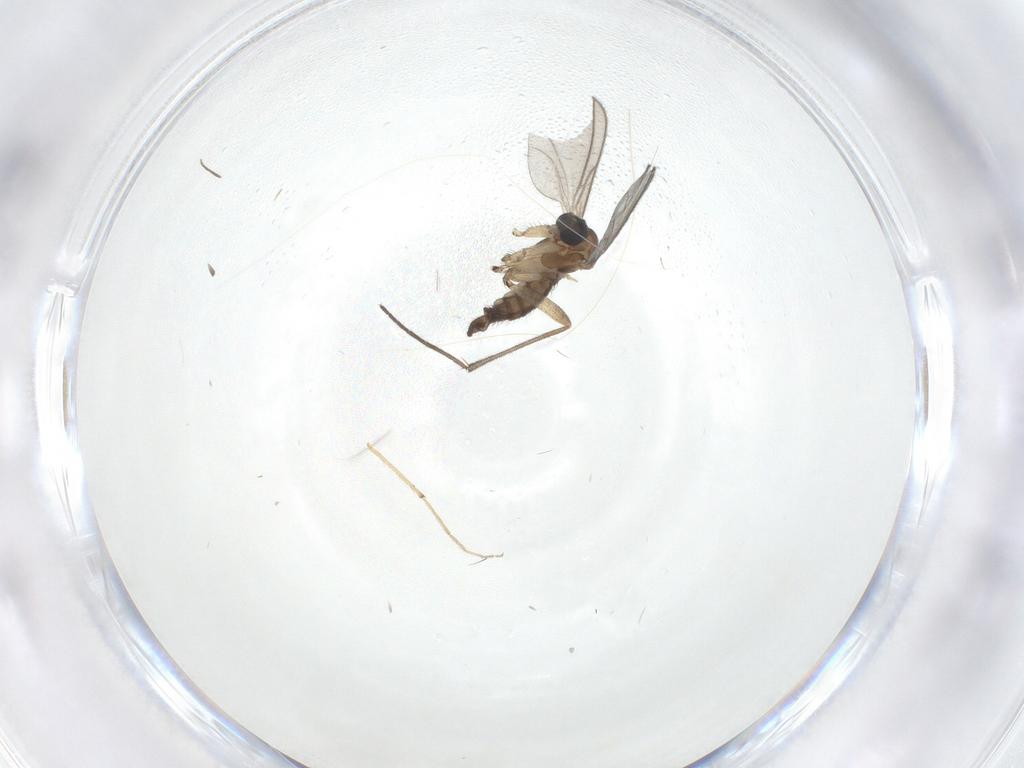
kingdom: Animalia
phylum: Arthropoda
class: Insecta
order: Diptera
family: Sciaridae
